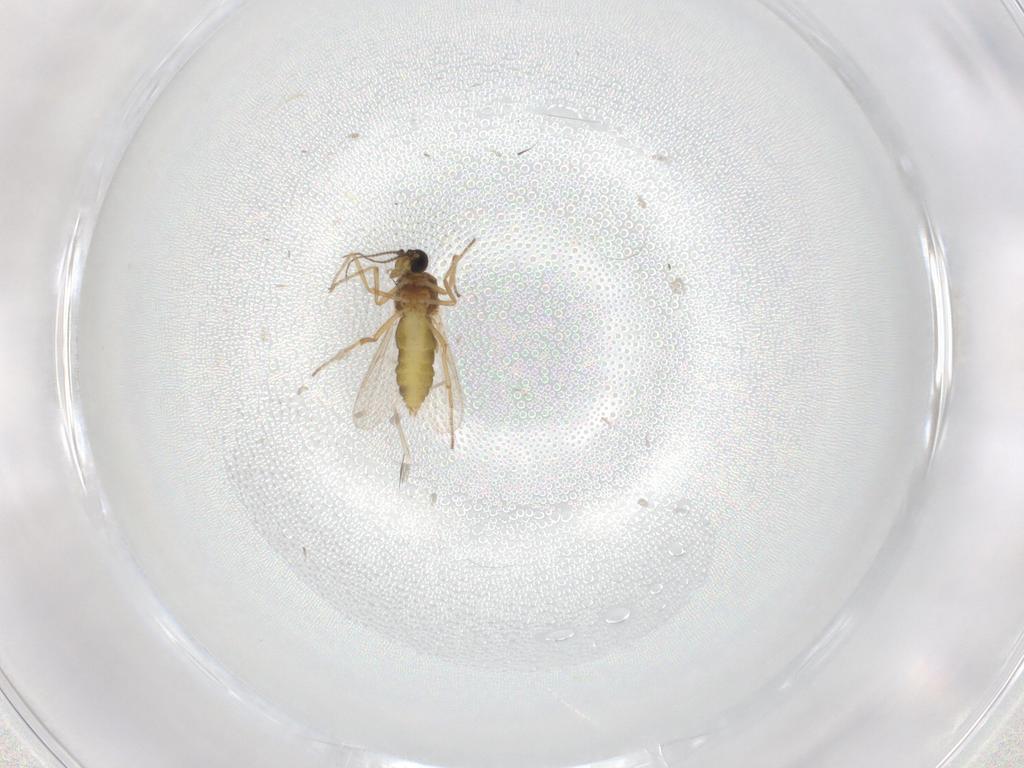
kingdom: Animalia
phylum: Arthropoda
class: Insecta
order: Diptera
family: Ceratopogonidae
